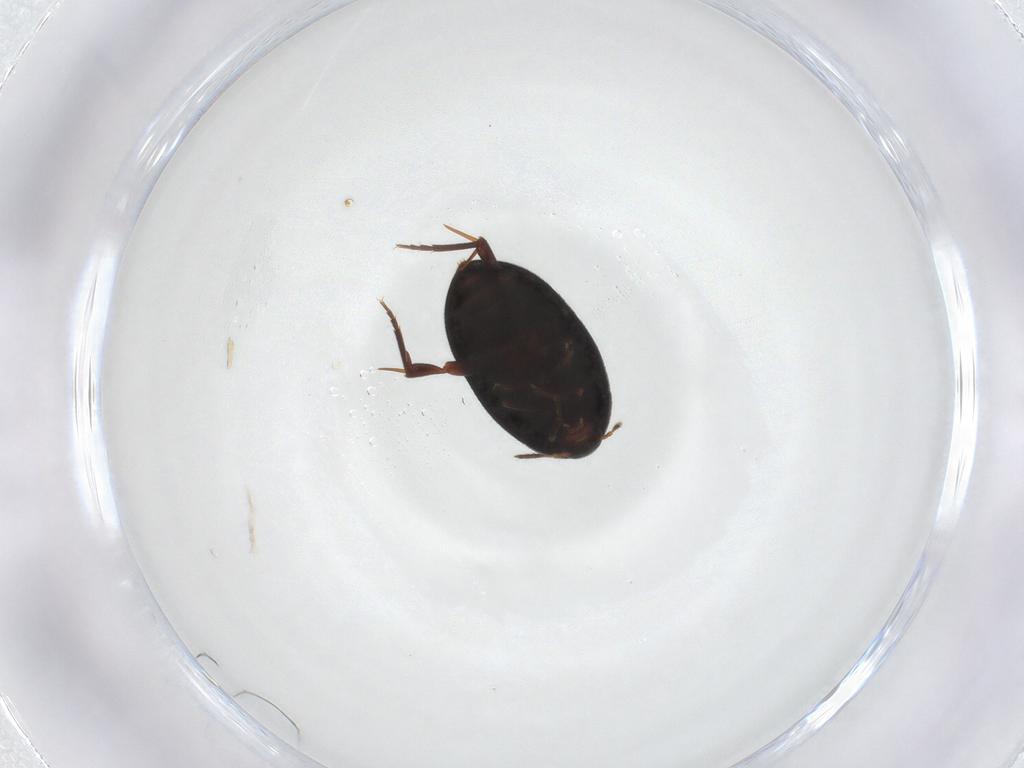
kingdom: Animalia
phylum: Arthropoda
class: Insecta
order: Coleoptera
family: Melandryidae
